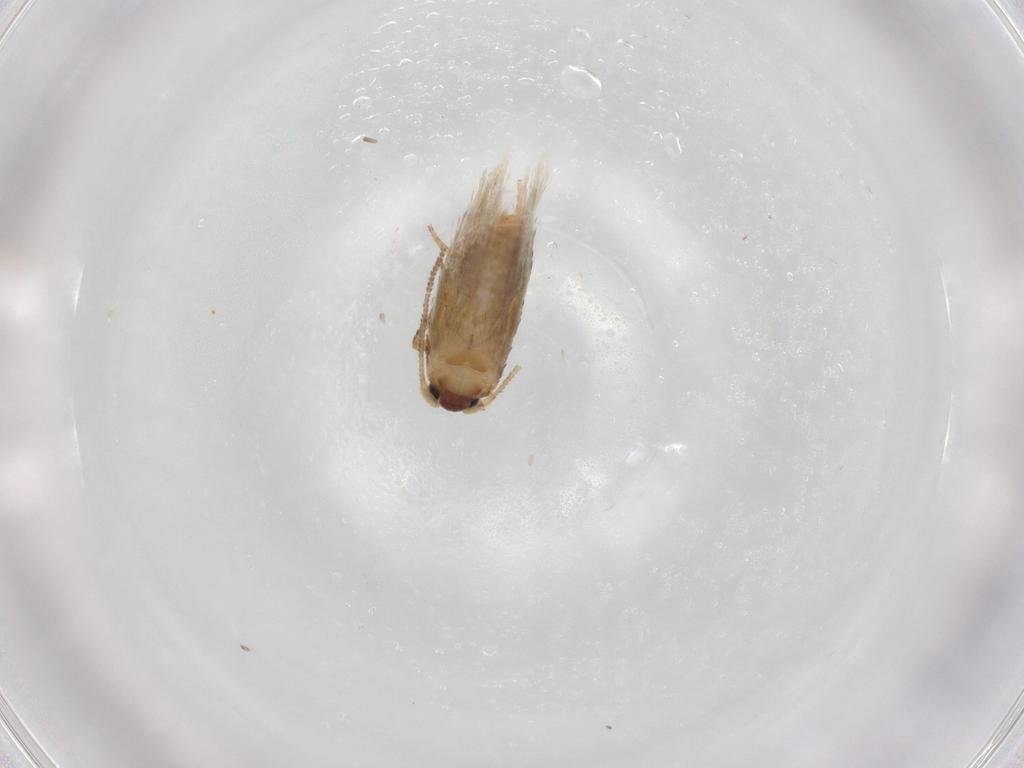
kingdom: Animalia
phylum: Arthropoda
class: Insecta
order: Lepidoptera
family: Nepticulidae
